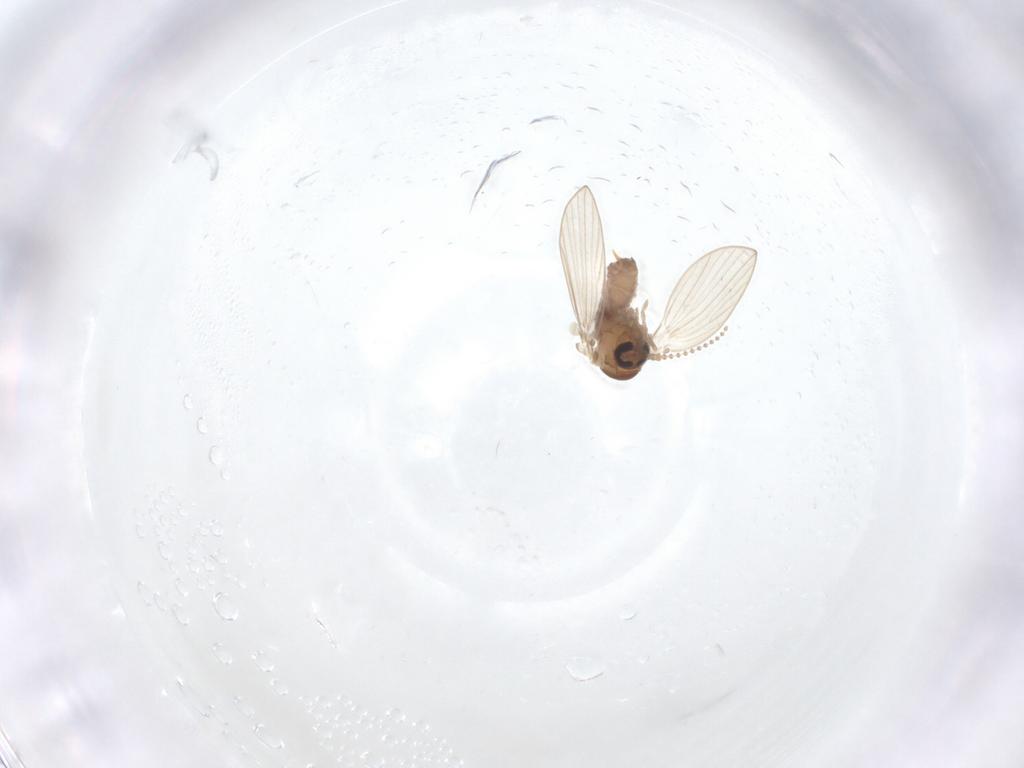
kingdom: Animalia
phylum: Arthropoda
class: Insecta
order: Diptera
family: Psychodidae
